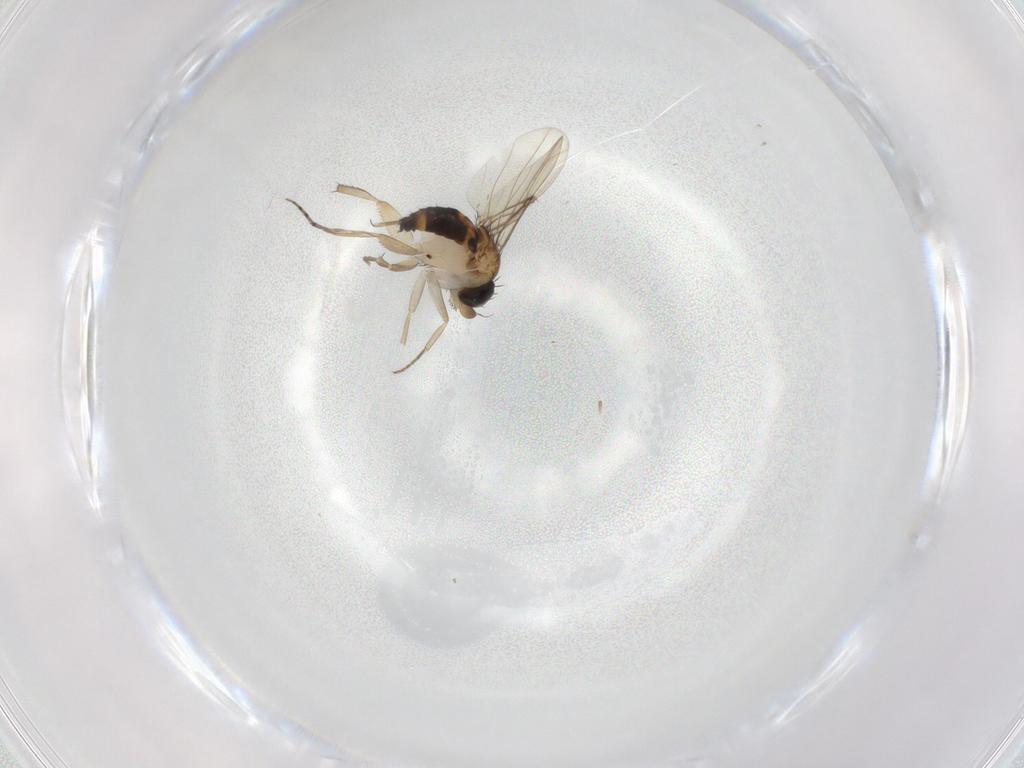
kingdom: Animalia
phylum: Arthropoda
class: Insecta
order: Diptera
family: Phoridae
